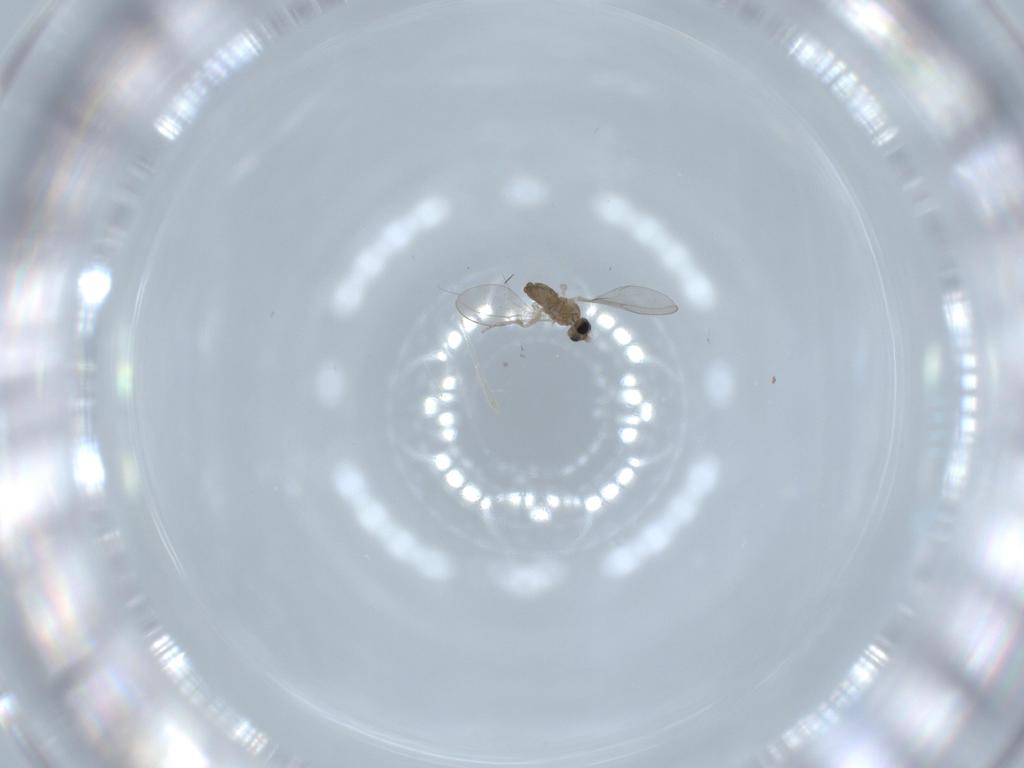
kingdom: Animalia
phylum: Arthropoda
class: Insecta
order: Diptera
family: Cecidomyiidae
